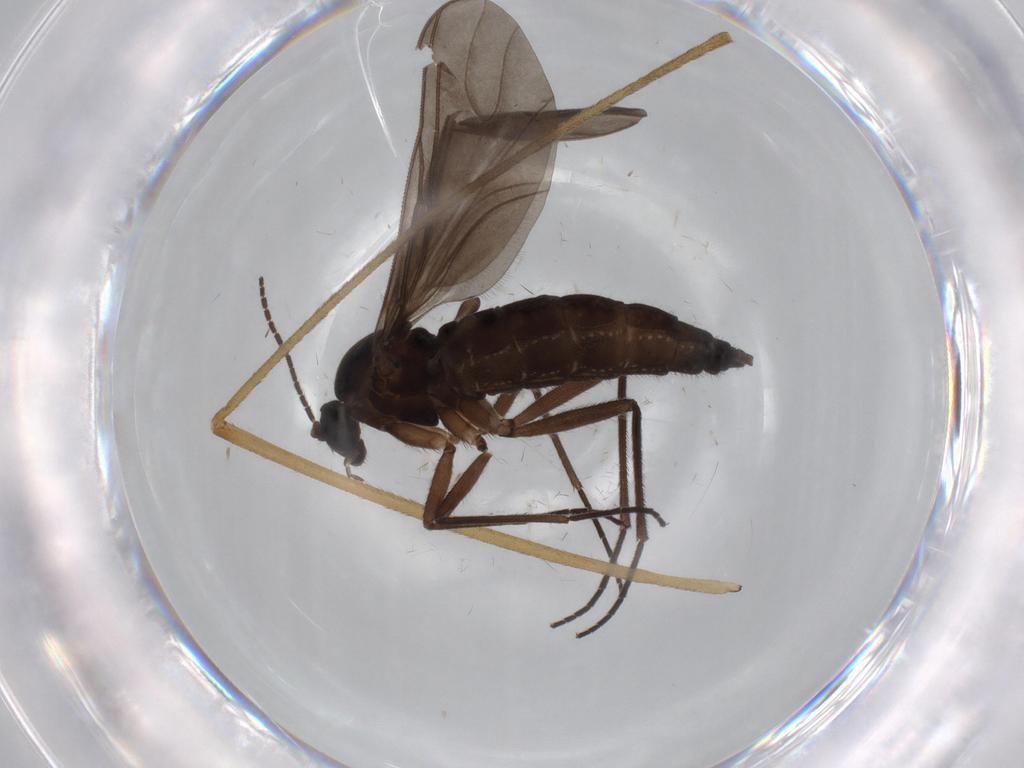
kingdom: Animalia
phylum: Arthropoda
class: Insecta
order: Diptera
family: Limoniidae
